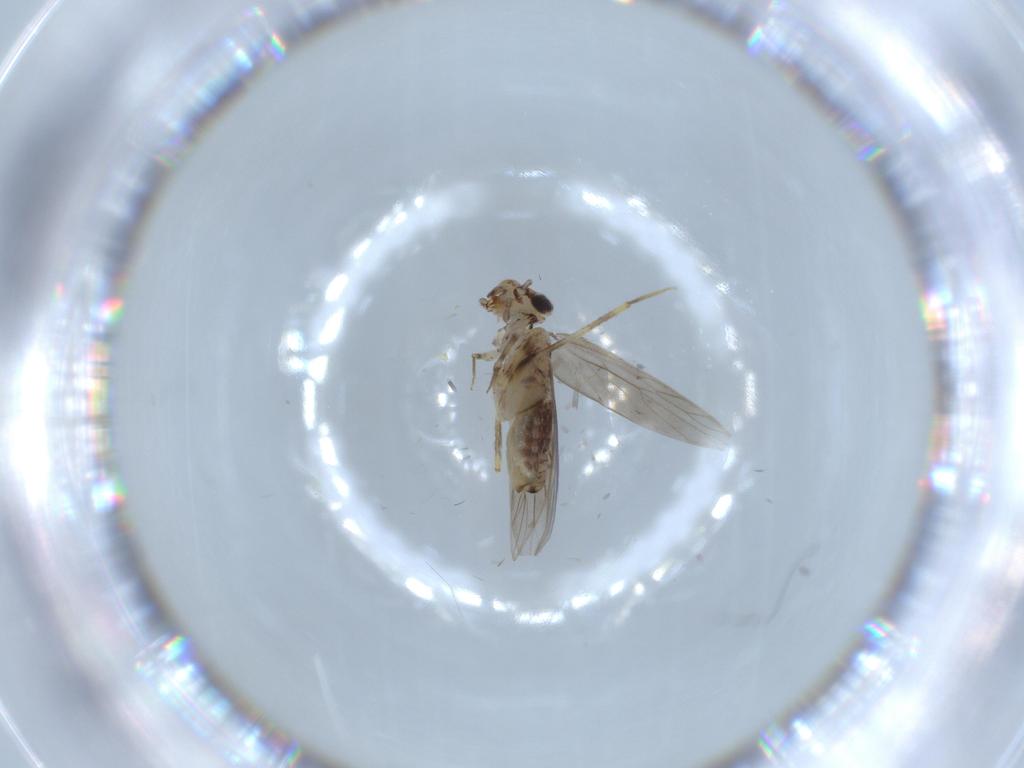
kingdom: Animalia
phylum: Arthropoda
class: Insecta
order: Psocodea
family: Lepidopsocidae
